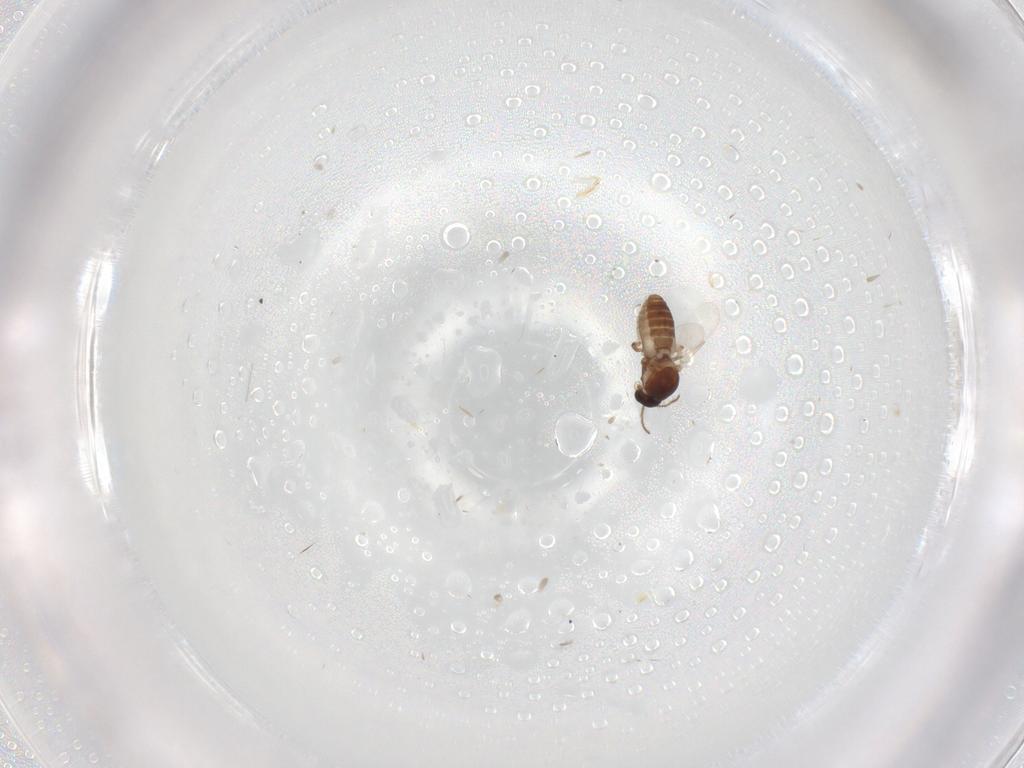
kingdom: Animalia
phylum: Arthropoda
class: Insecta
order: Diptera
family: Ceratopogonidae
